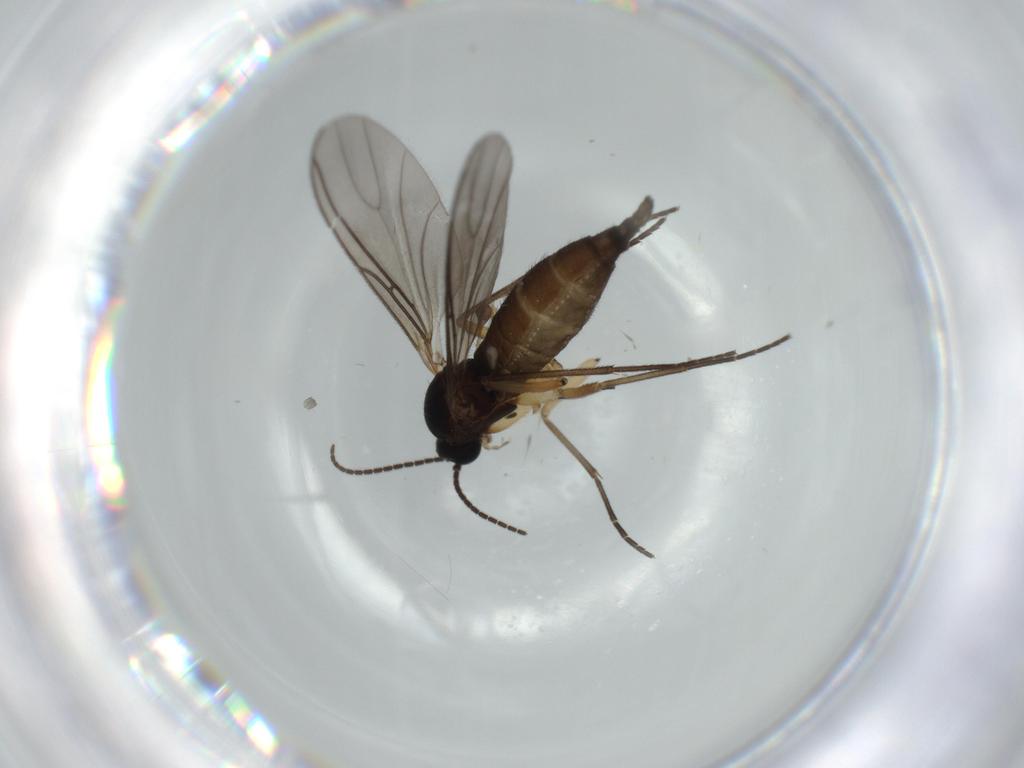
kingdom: Animalia
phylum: Arthropoda
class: Insecta
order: Diptera
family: Sciaridae
